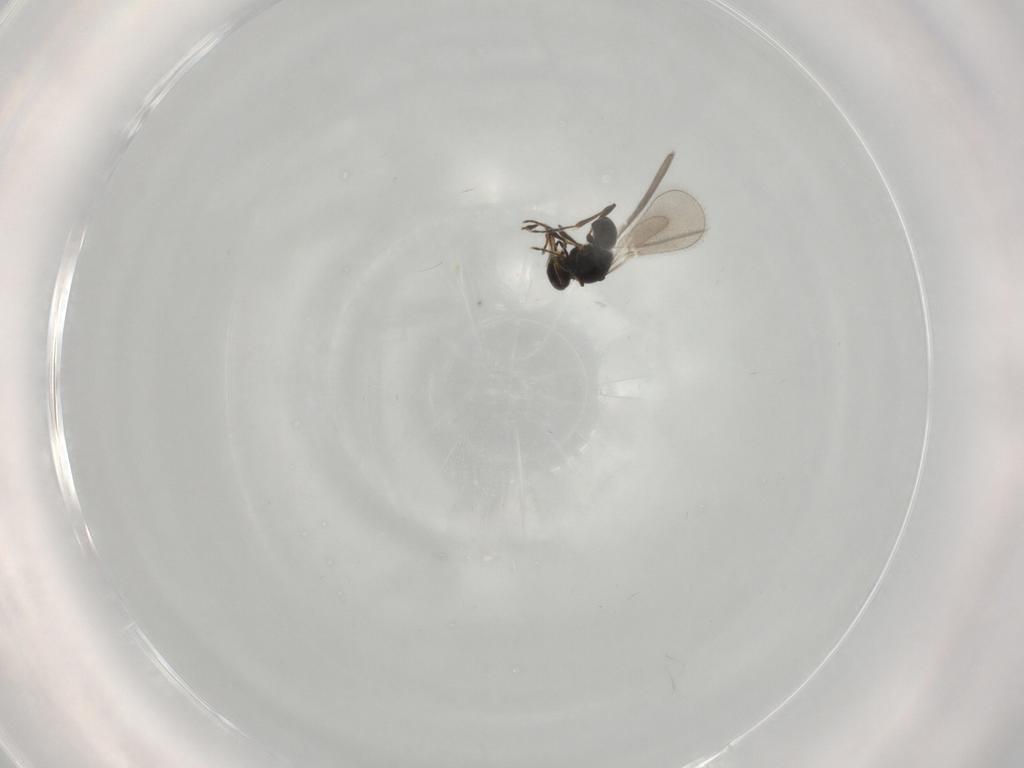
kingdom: Animalia
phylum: Arthropoda
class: Insecta
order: Hymenoptera
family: Platygastridae
